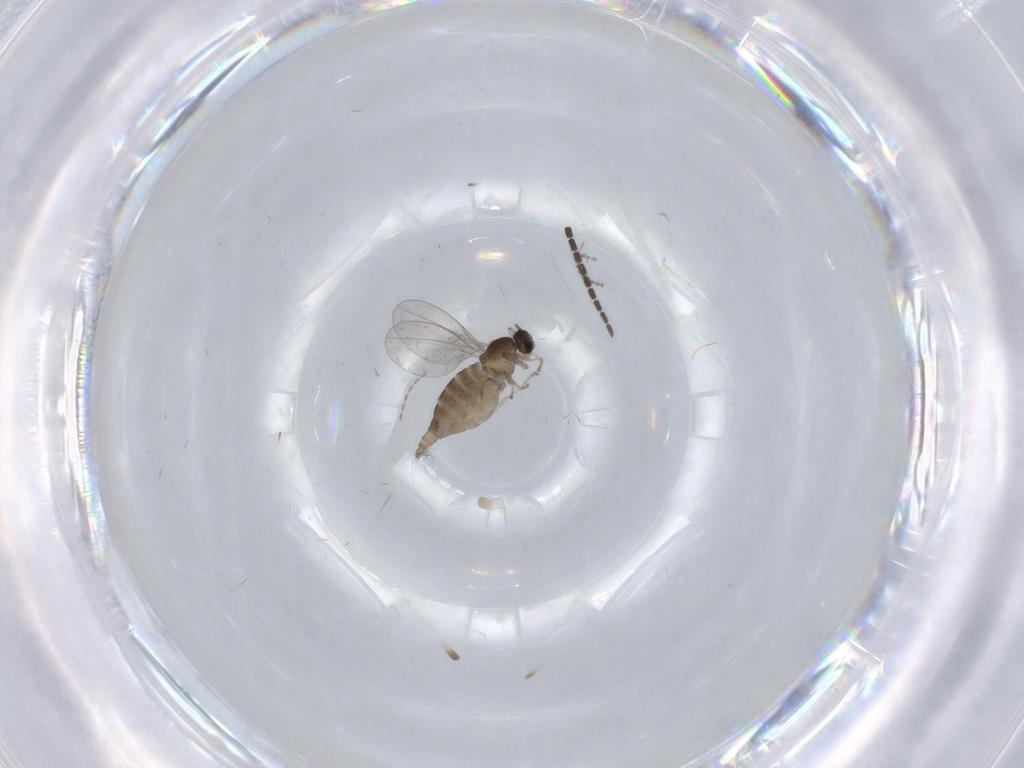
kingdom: Animalia
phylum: Arthropoda
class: Insecta
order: Diptera
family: Cecidomyiidae
